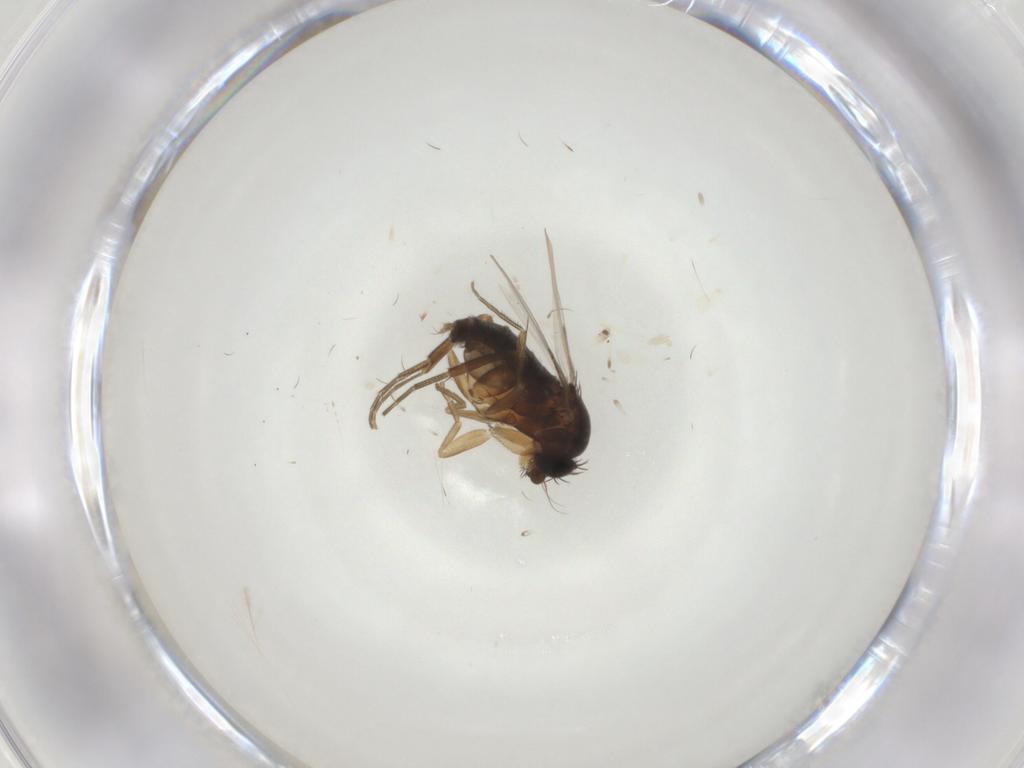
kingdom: Animalia
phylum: Arthropoda
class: Insecta
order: Diptera
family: Phoridae
